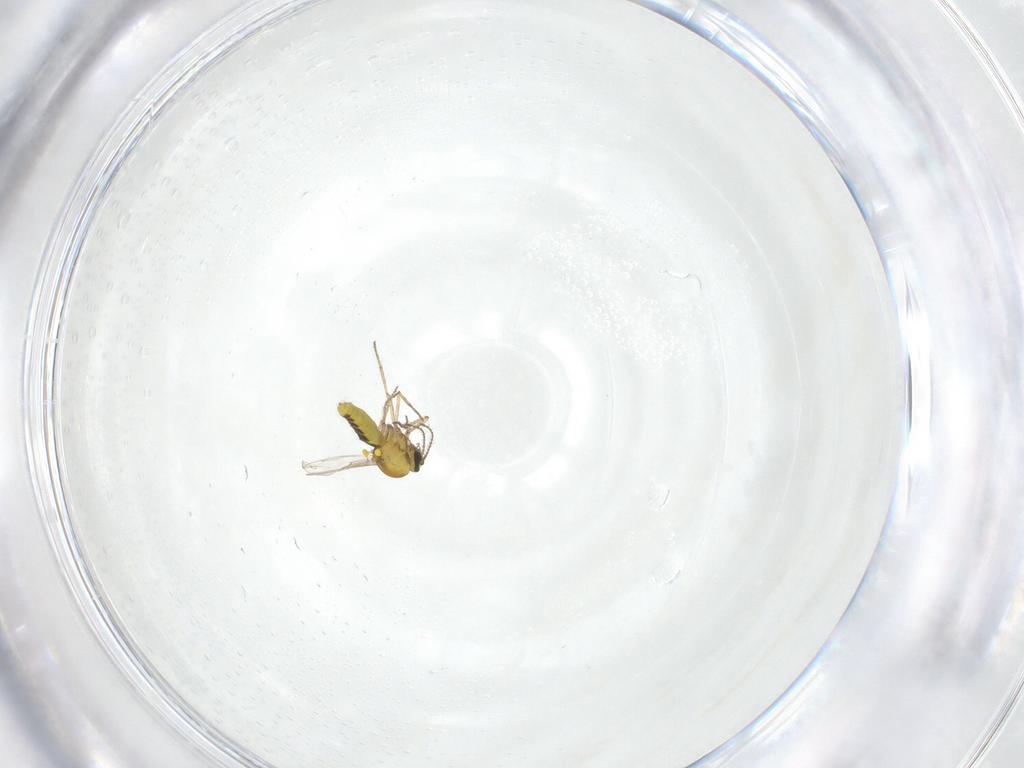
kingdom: Animalia
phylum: Arthropoda
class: Insecta
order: Diptera
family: Ceratopogonidae
